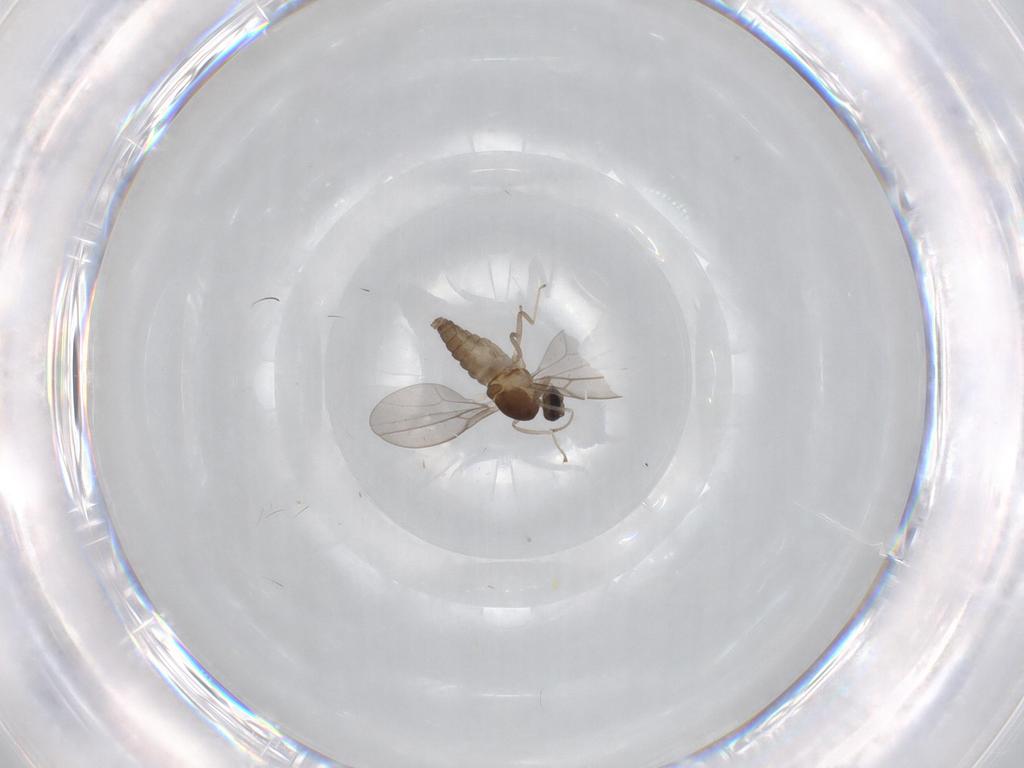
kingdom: Animalia
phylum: Arthropoda
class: Insecta
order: Diptera
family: Cecidomyiidae
